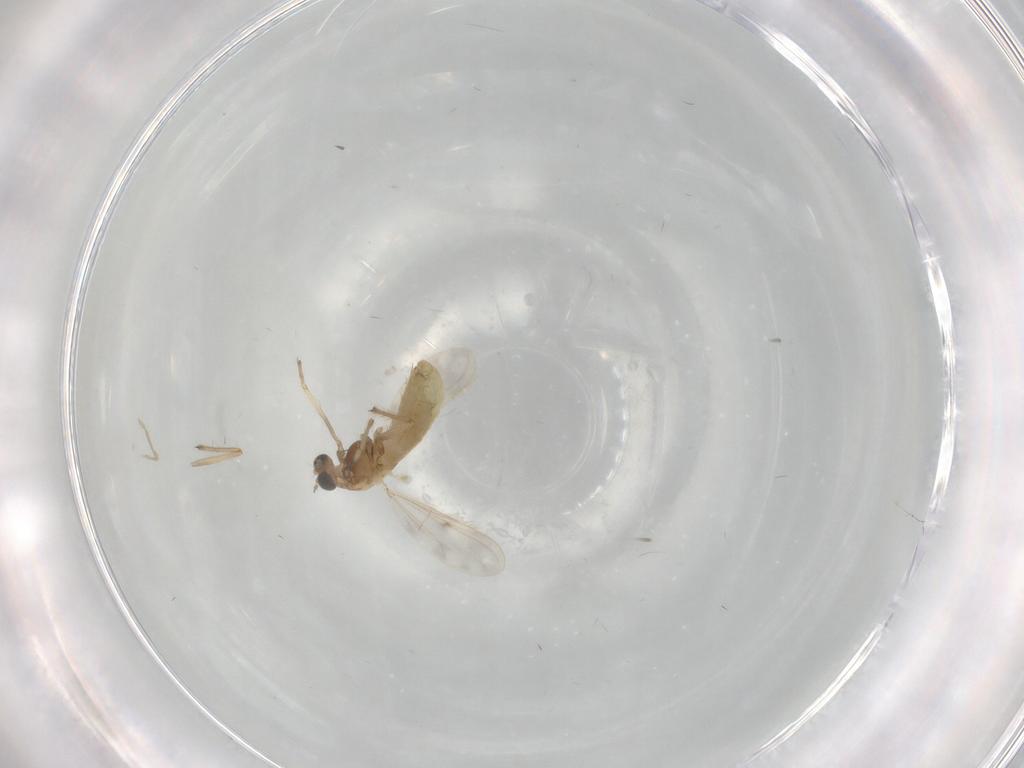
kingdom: Animalia
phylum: Arthropoda
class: Insecta
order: Diptera
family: Chironomidae
